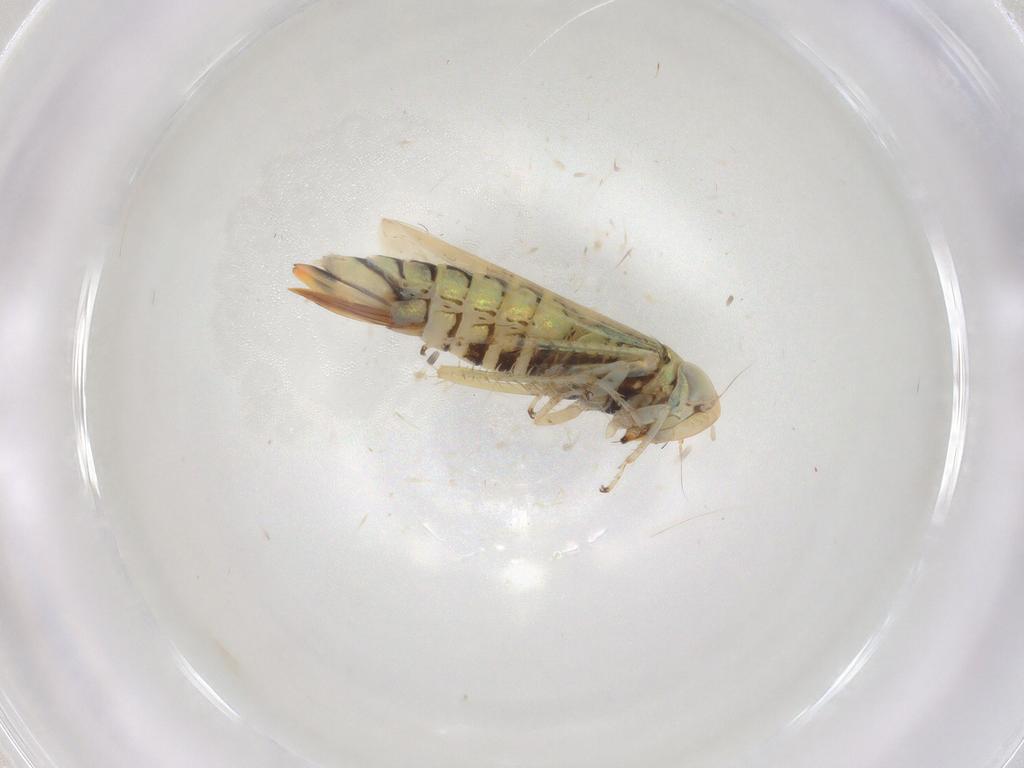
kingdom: Animalia
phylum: Arthropoda
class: Insecta
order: Hemiptera
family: Cicadellidae
